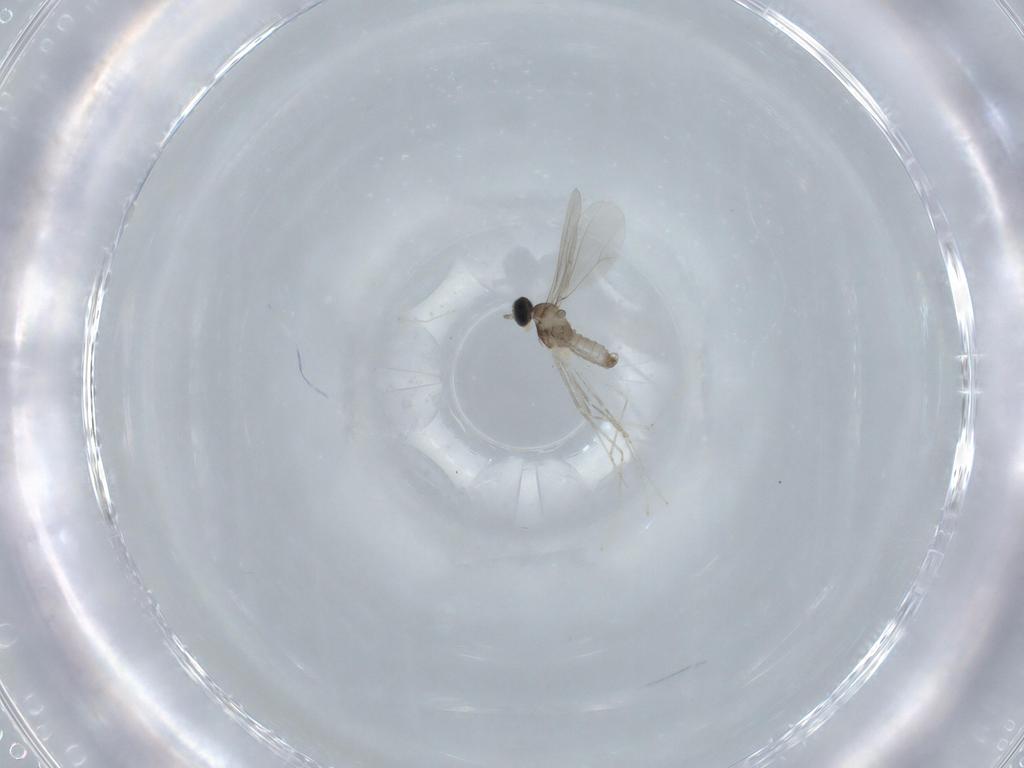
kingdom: Animalia
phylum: Arthropoda
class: Insecta
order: Diptera
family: Cecidomyiidae
